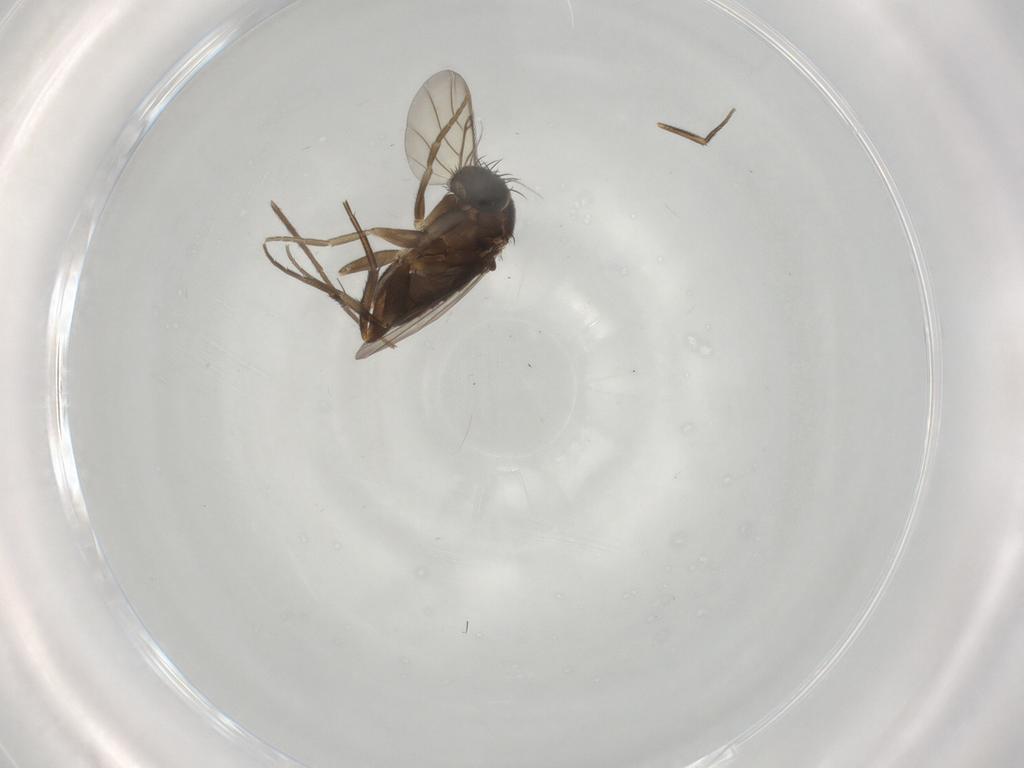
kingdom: Animalia
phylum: Arthropoda
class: Insecta
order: Diptera
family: Phoridae
